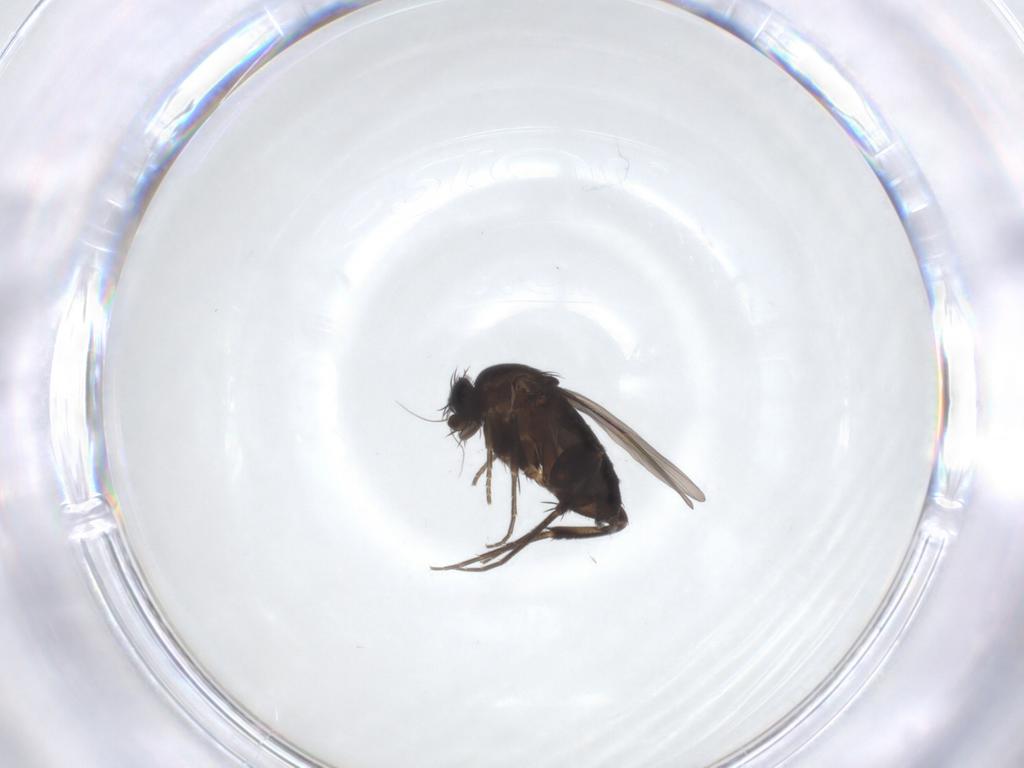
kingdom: Animalia
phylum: Arthropoda
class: Insecta
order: Diptera
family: Phoridae
